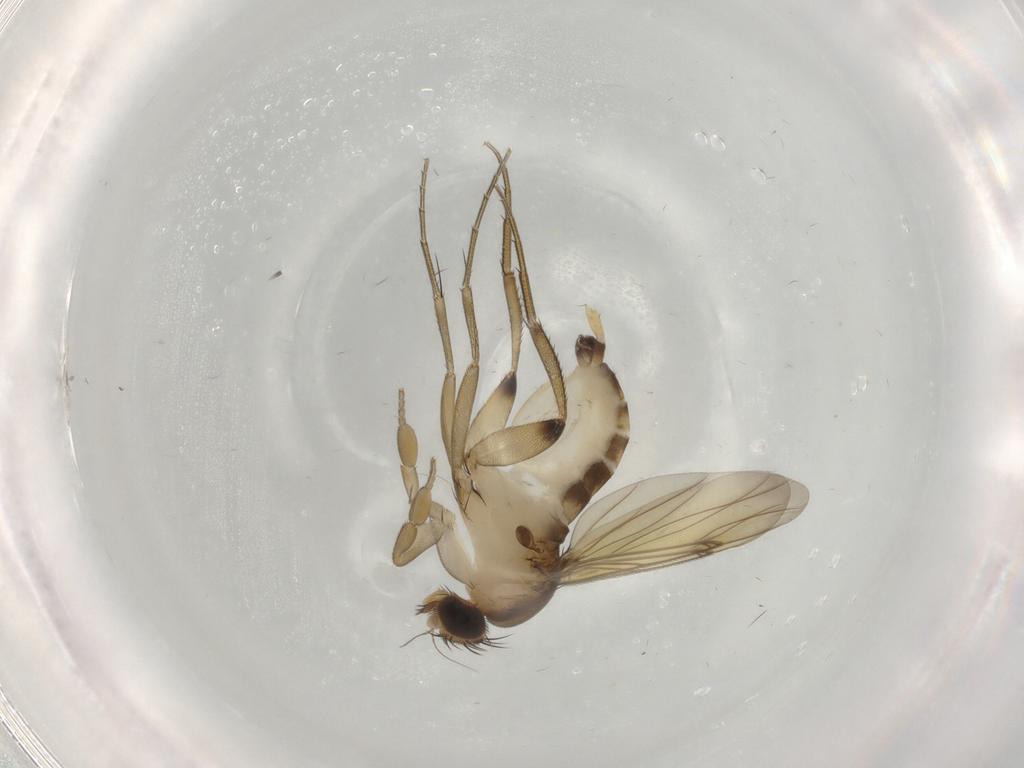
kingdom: Animalia
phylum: Arthropoda
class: Insecta
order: Diptera
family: Phoridae
